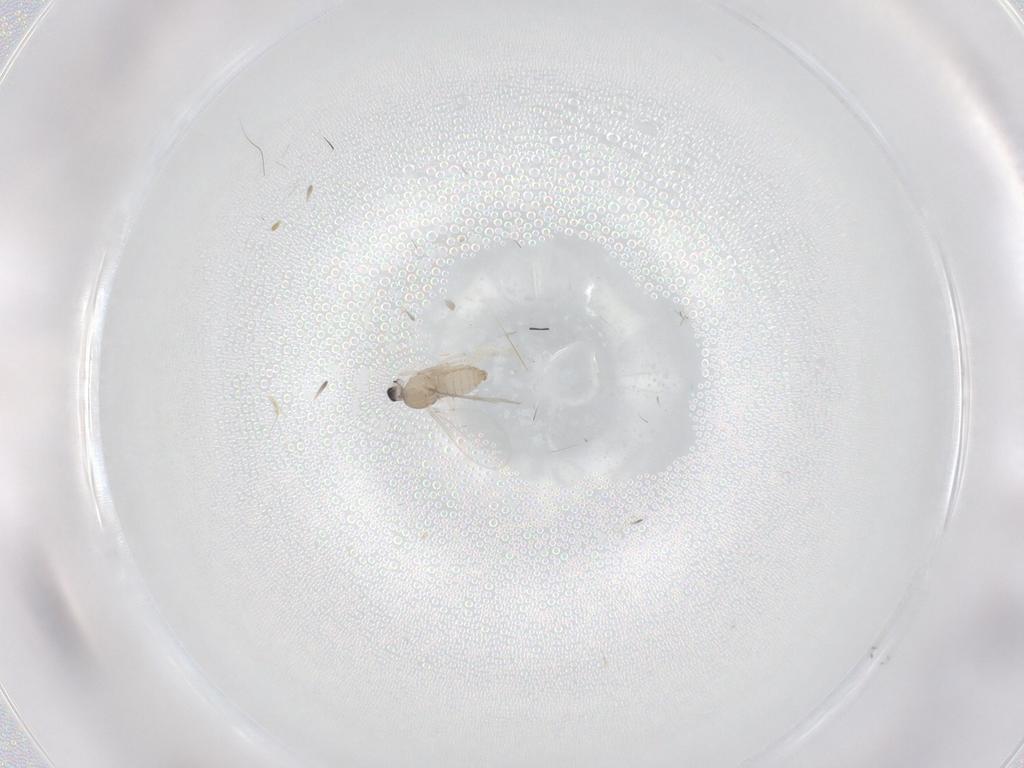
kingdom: Animalia
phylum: Arthropoda
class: Insecta
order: Diptera
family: Cecidomyiidae
